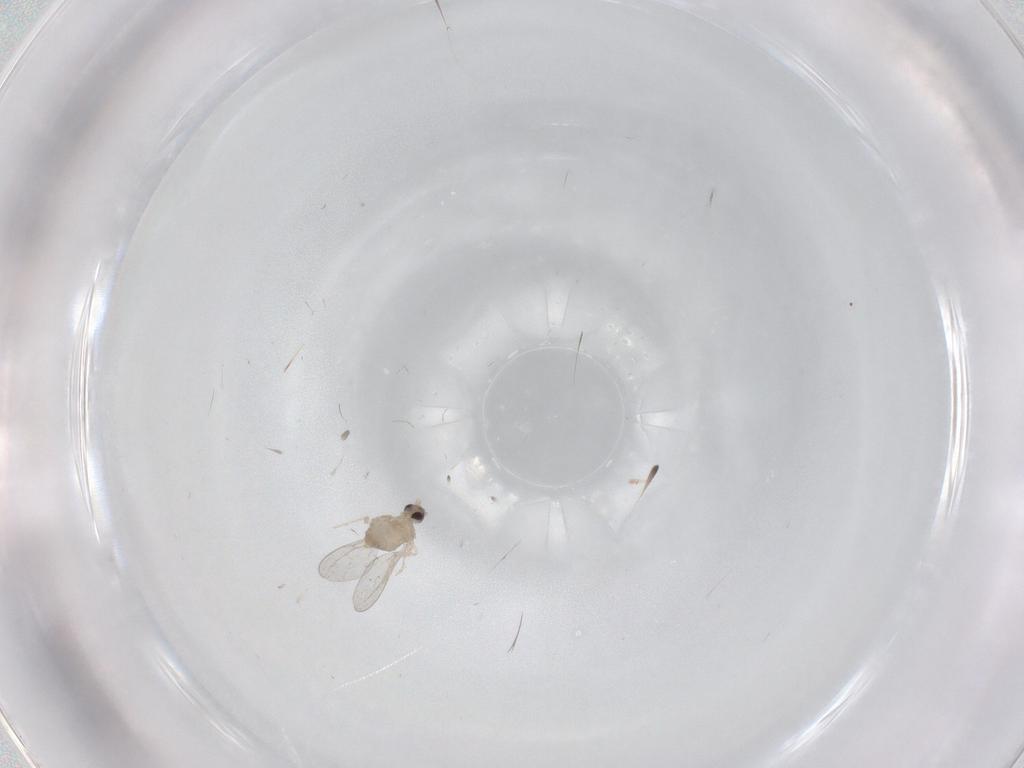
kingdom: Animalia
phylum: Arthropoda
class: Insecta
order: Diptera
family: Cecidomyiidae
